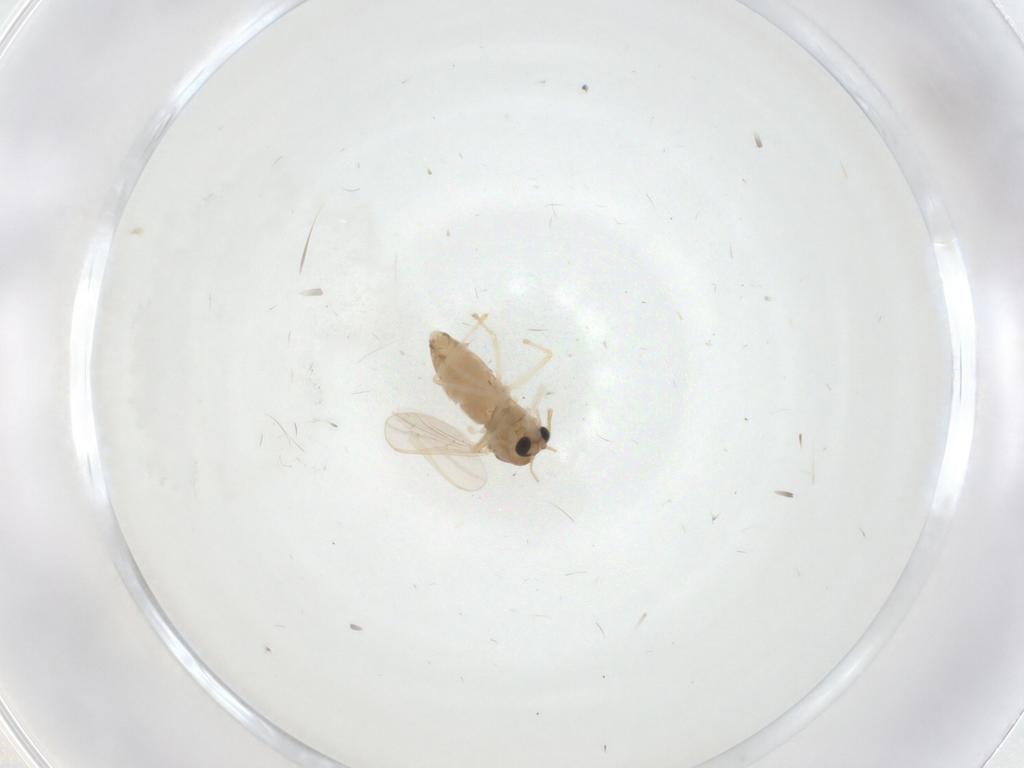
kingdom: Animalia
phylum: Arthropoda
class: Insecta
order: Diptera
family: Chironomidae
